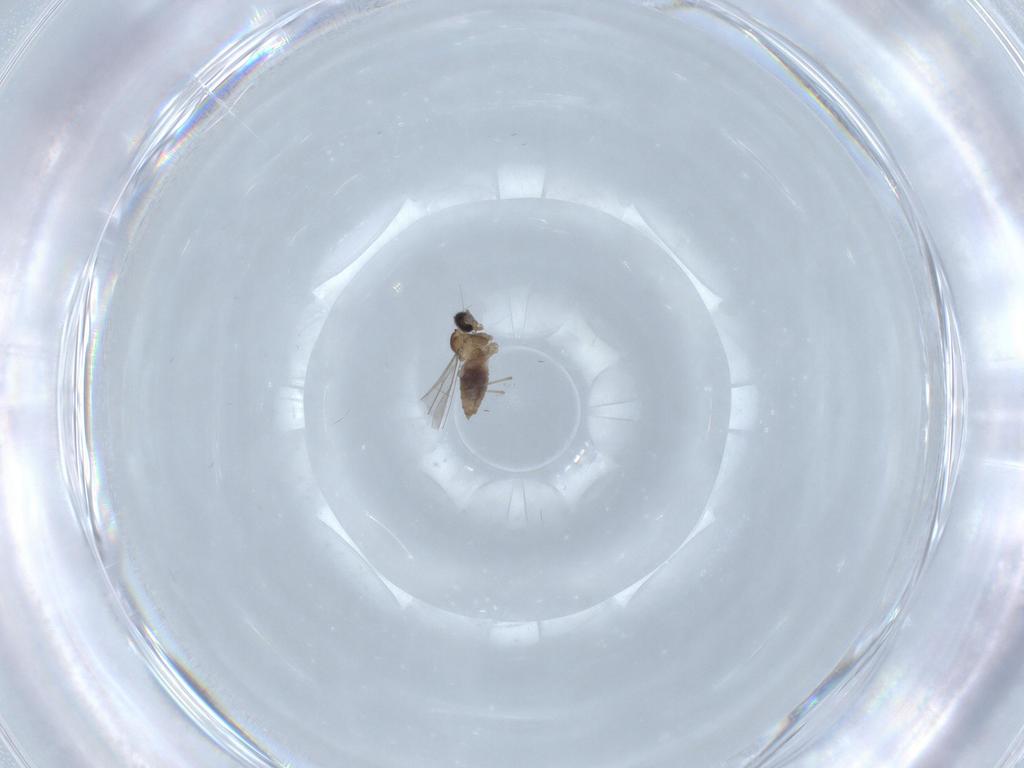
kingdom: Animalia
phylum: Arthropoda
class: Insecta
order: Diptera
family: Cecidomyiidae
